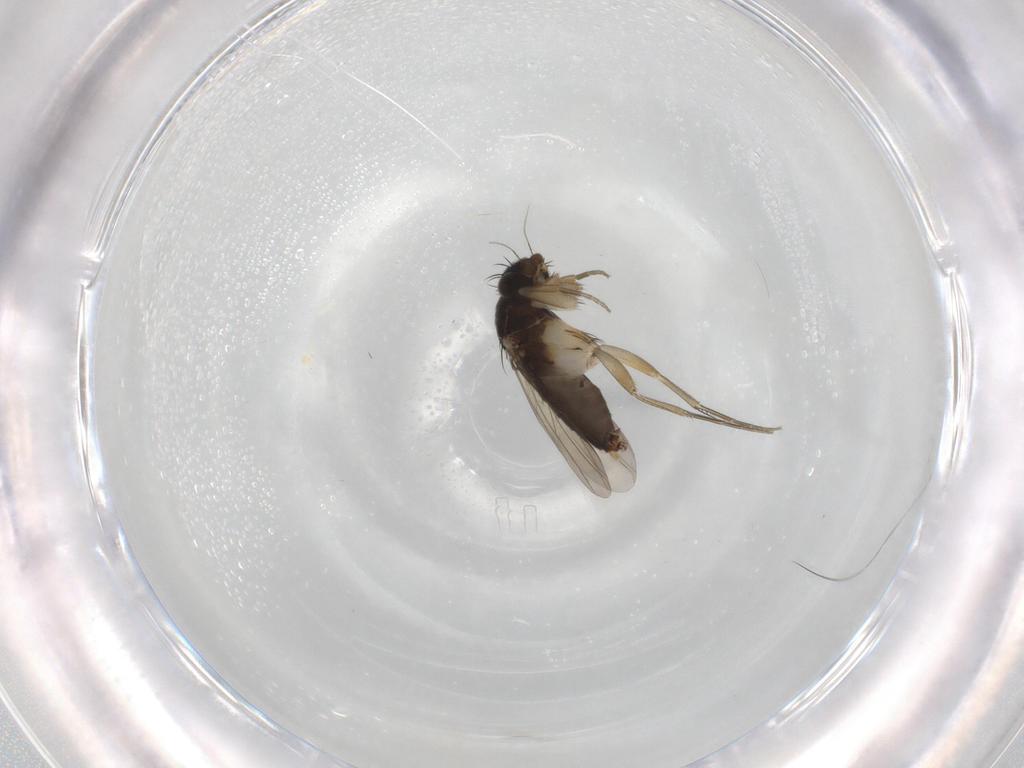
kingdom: Animalia
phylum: Arthropoda
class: Insecta
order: Diptera
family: Phoridae
